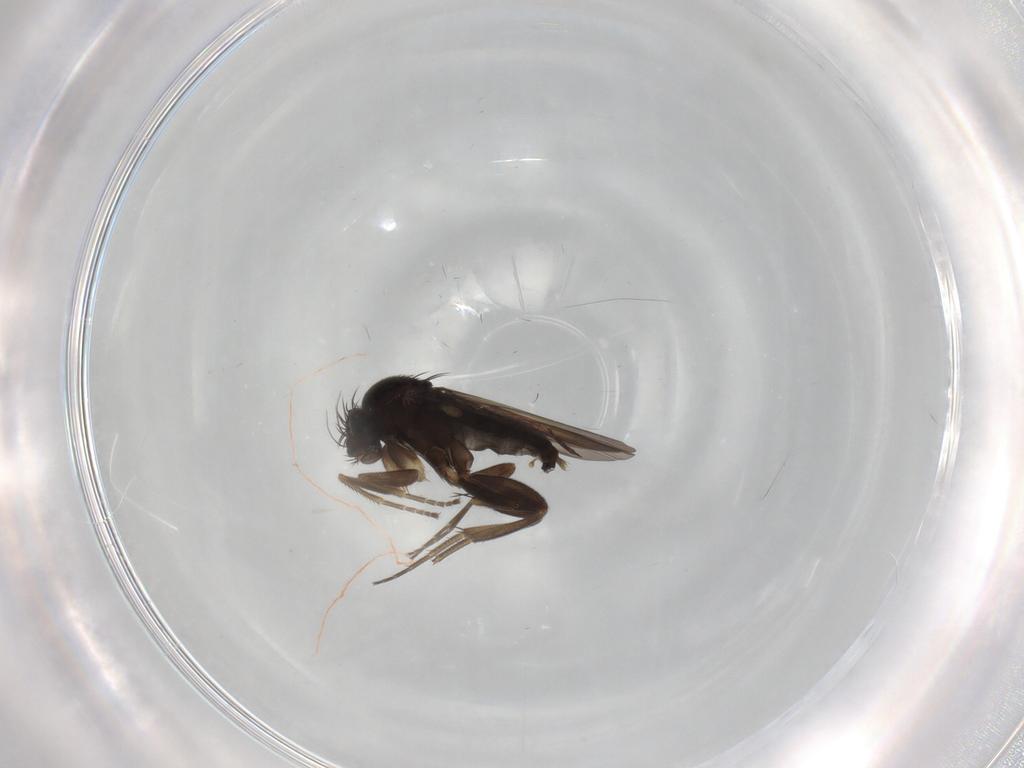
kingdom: Animalia
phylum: Arthropoda
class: Insecta
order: Diptera
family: Phoridae
